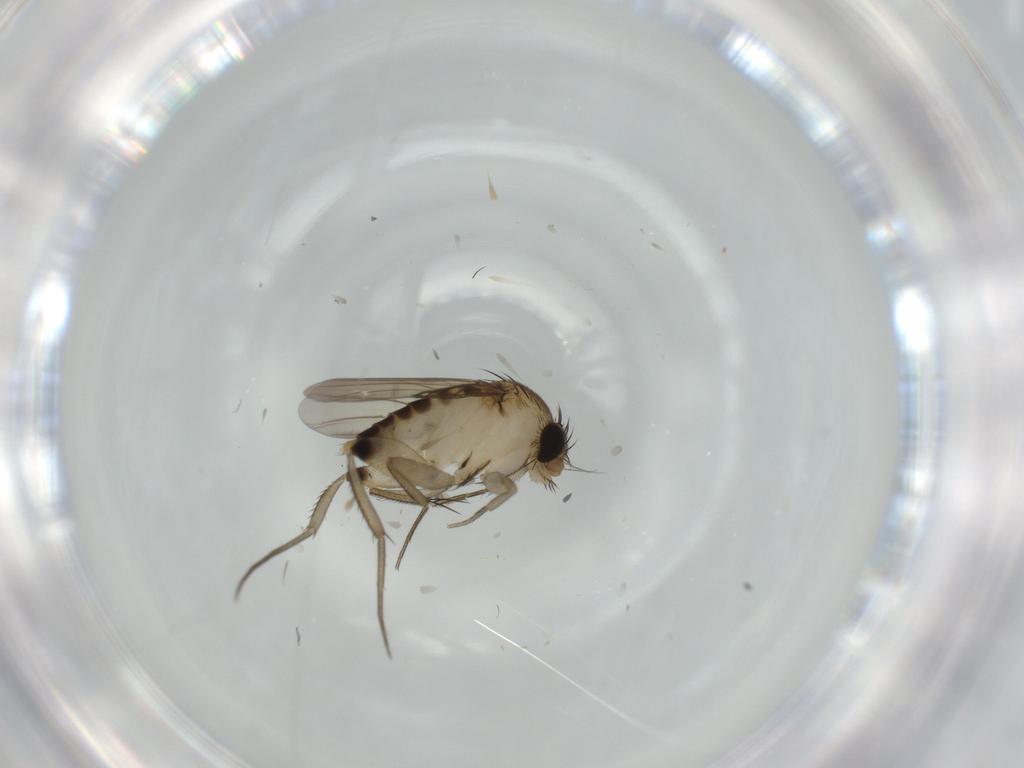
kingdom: Animalia
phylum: Arthropoda
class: Insecta
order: Diptera
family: Phoridae
